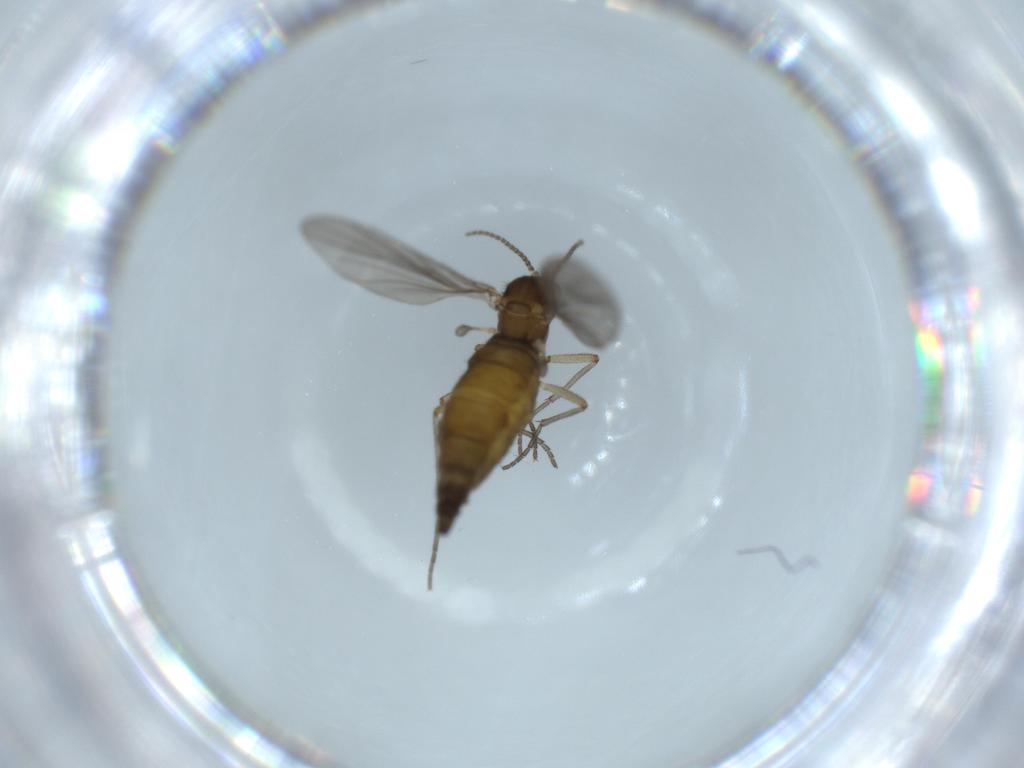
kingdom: Animalia
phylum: Arthropoda
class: Insecta
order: Diptera
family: Sciaridae
